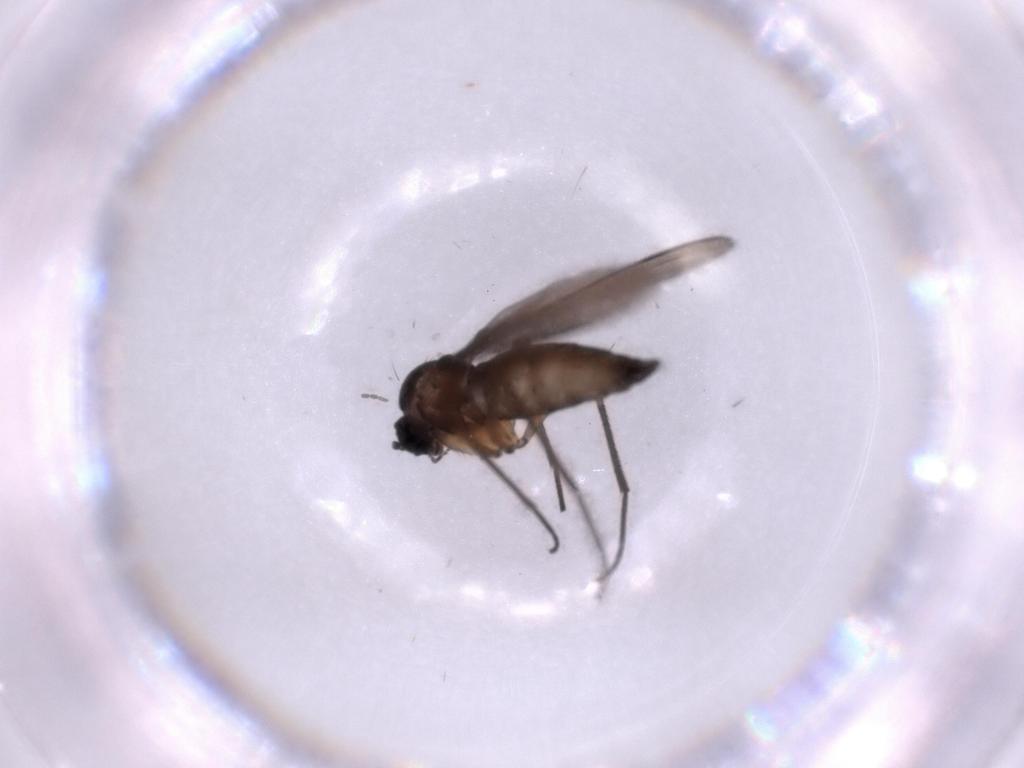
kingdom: Animalia
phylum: Arthropoda
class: Insecta
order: Diptera
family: Sciaridae
